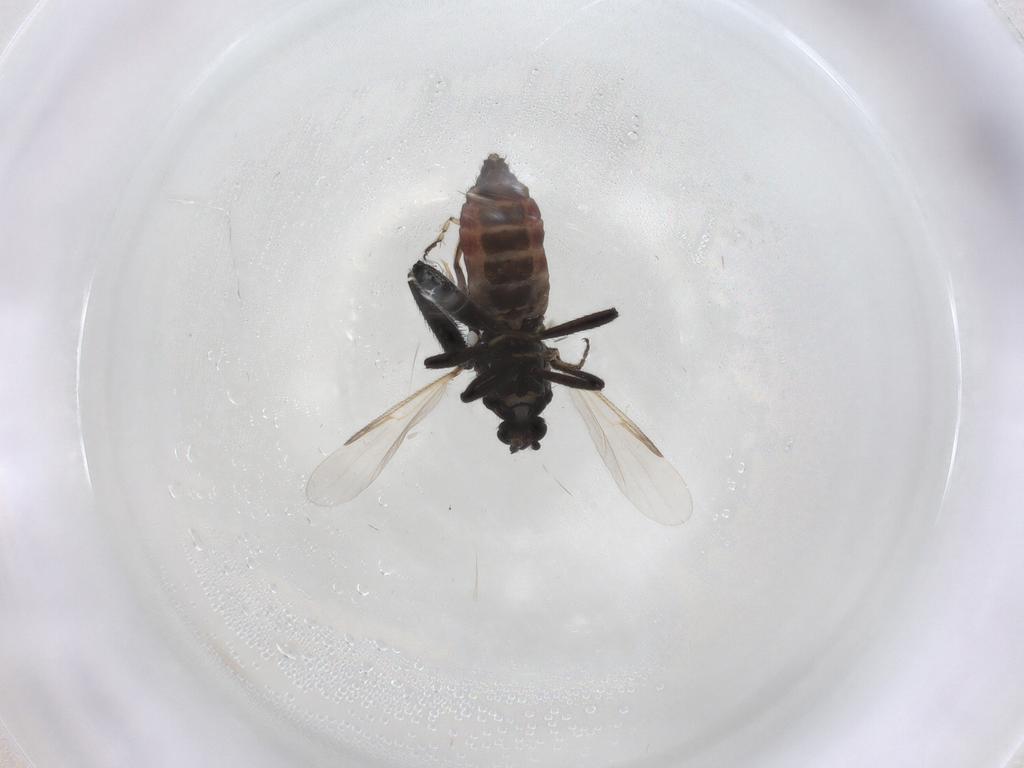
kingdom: Animalia
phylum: Arthropoda
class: Insecta
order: Diptera
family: Ceratopogonidae
